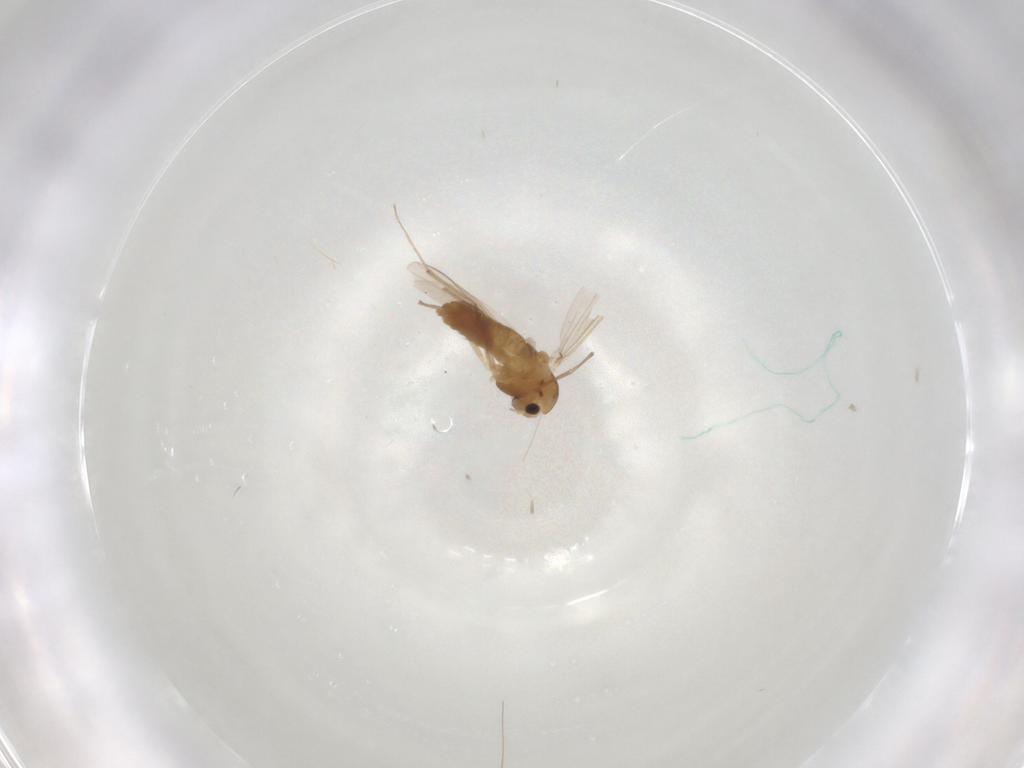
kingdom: Animalia
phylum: Arthropoda
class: Insecta
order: Diptera
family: Chironomidae
